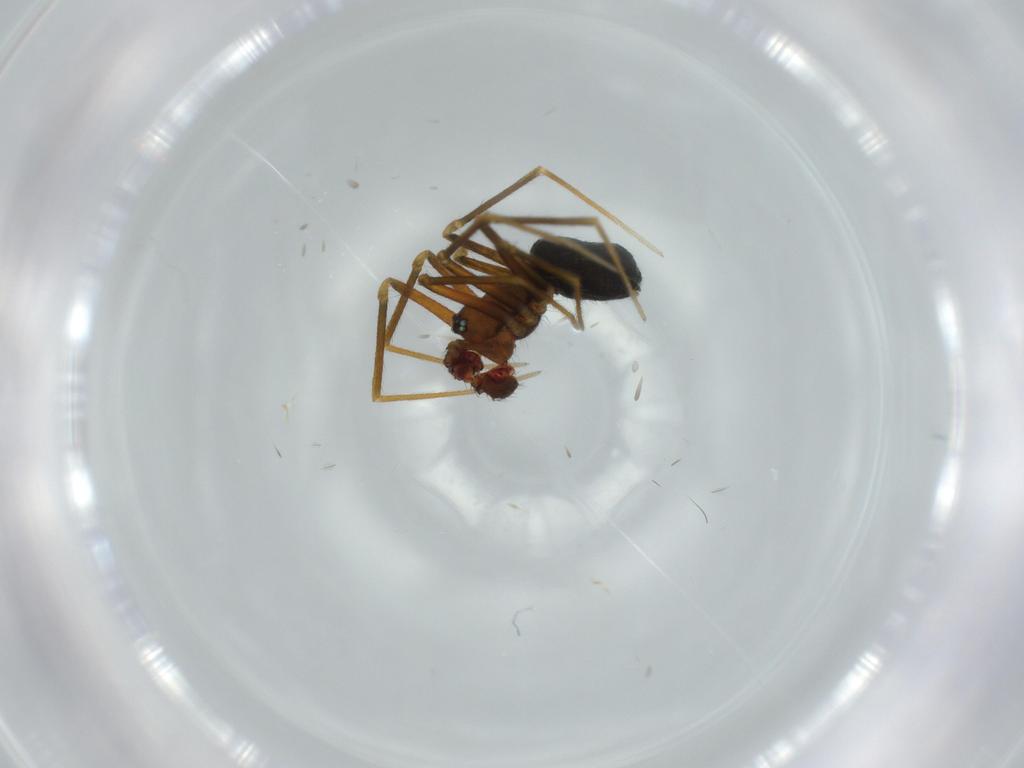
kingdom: Animalia
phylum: Arthropoda
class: Arachnida
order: Araneae
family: Linyphiidae
